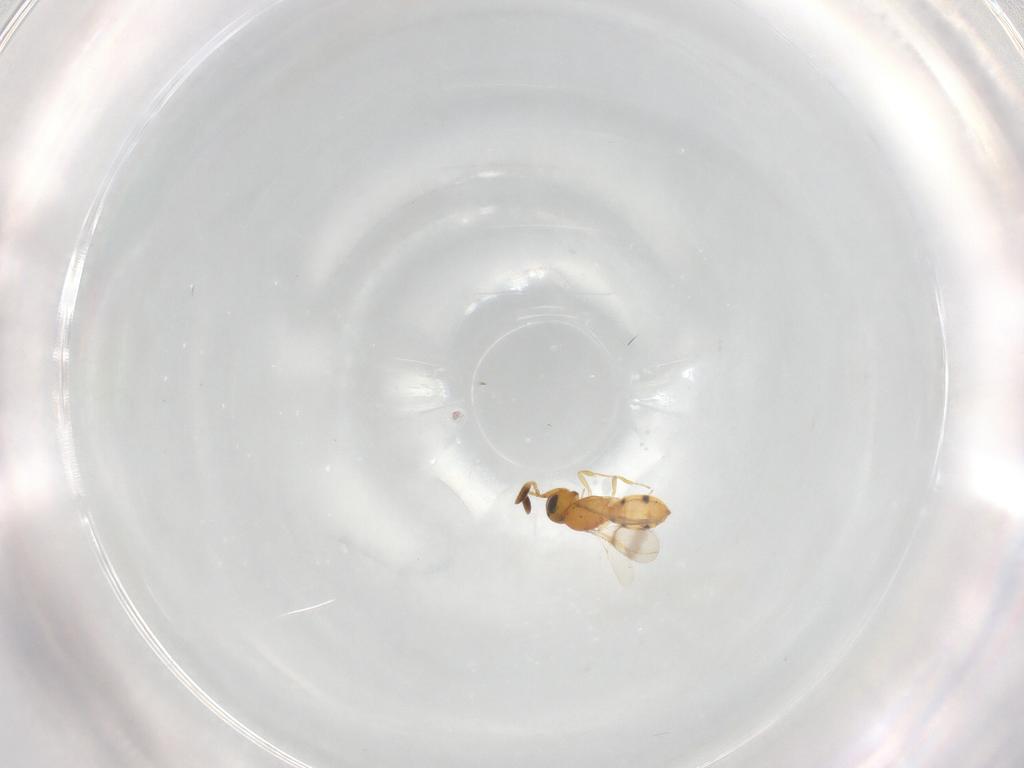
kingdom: Animalia
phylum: Arthropoda
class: Insecta
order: Hymenoptera
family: Scelionidae
